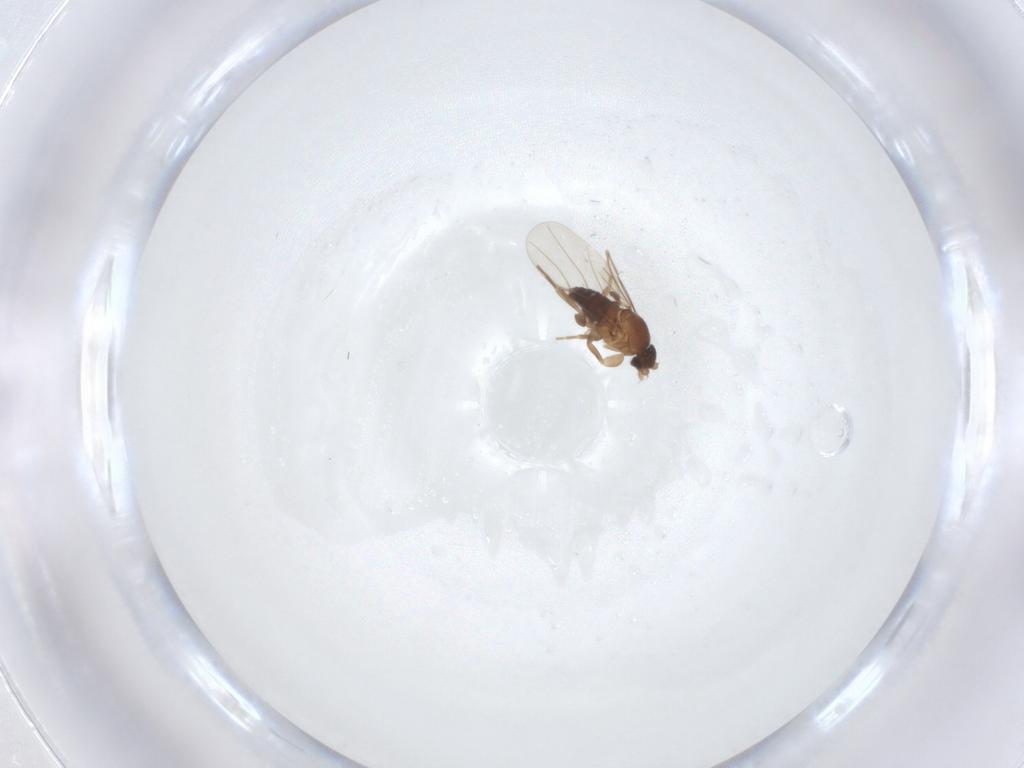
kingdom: Animalia
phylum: Arthropoda
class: Insecta
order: Diptera
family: Phoridae
